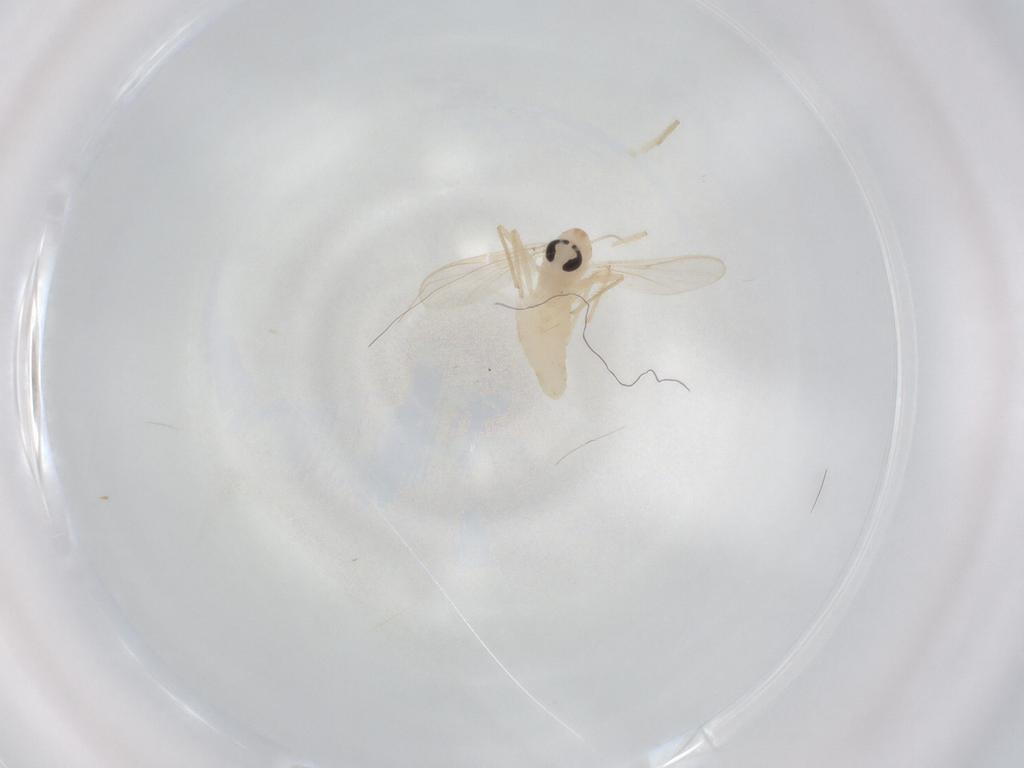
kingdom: Animalia
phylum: Arthropoda
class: Insecta
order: Diptera
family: Chironomidae
